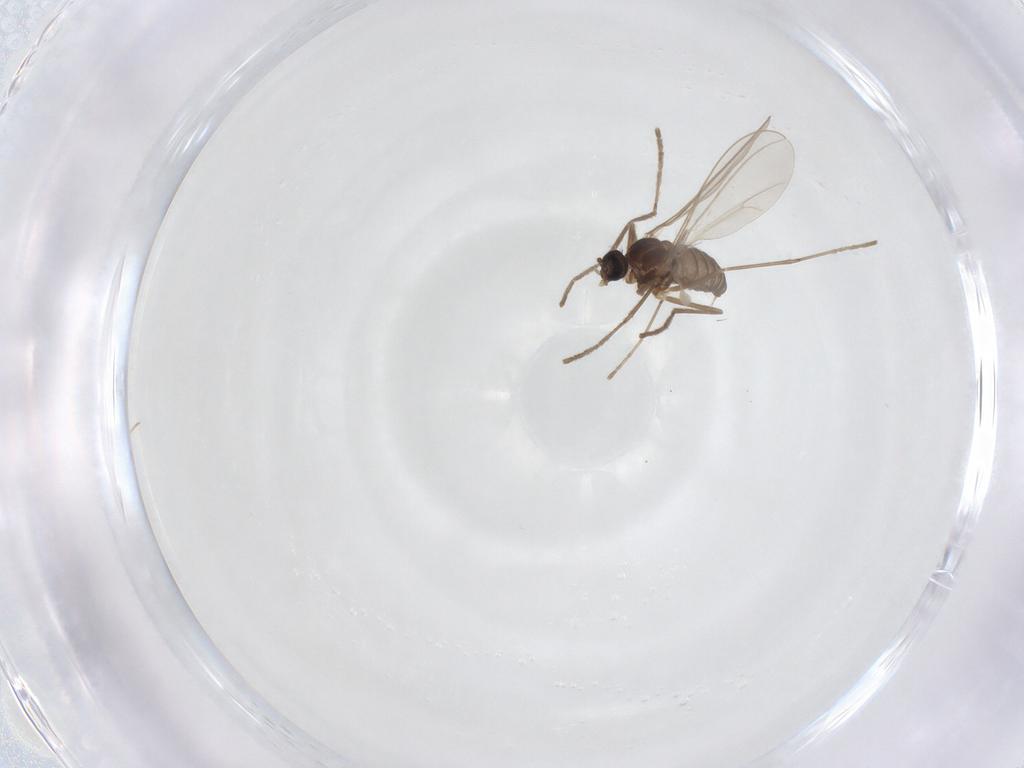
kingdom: Animalia
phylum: Arthropoda
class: Insecta
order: Diptera
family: Cecidomyiidae
